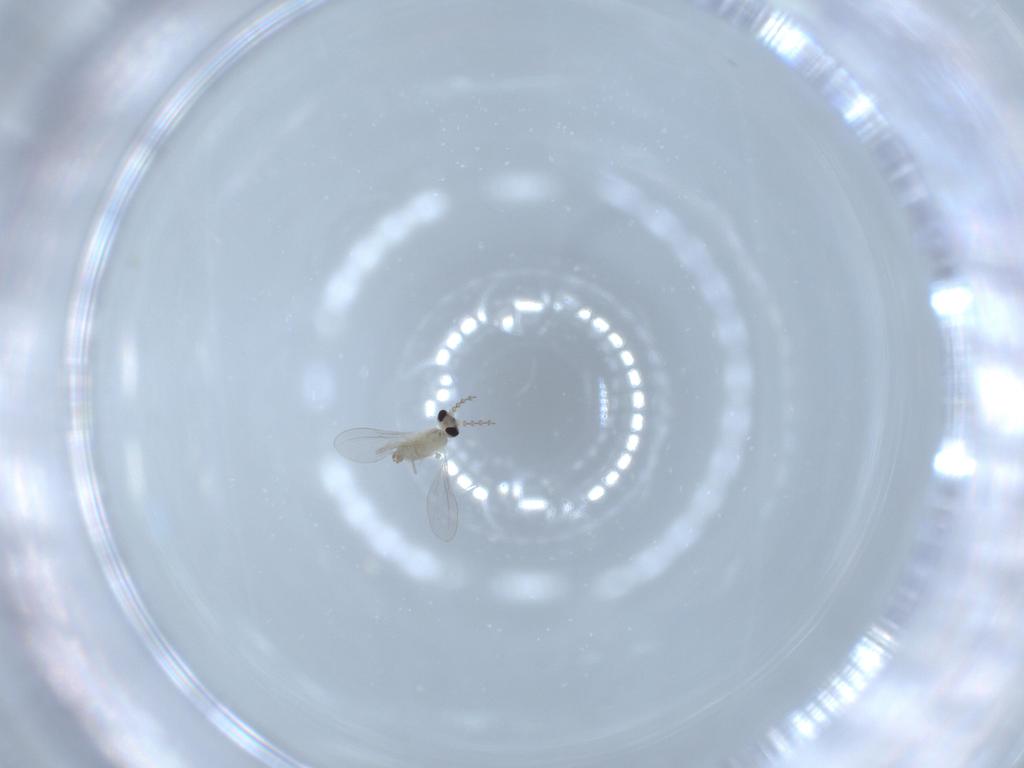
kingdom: Animalia
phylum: Arthropoda
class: Insecta
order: Diptera
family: Cecidomyiidae
